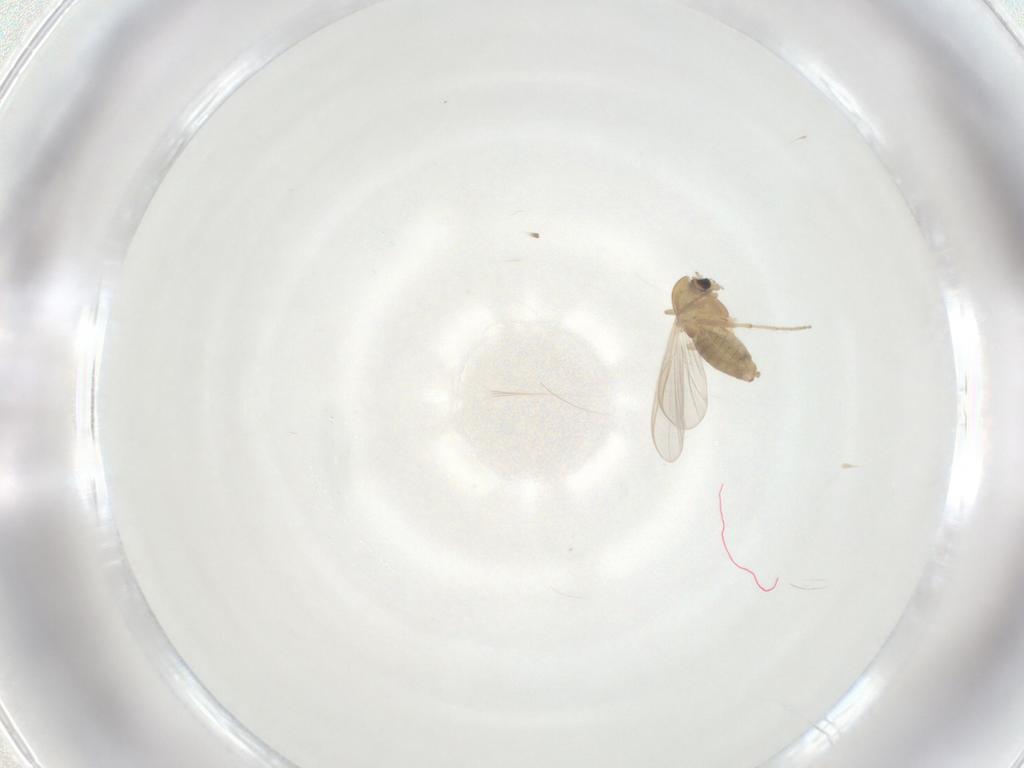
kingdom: Animalia
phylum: Arthropoda
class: Insecta
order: Diptera
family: Chironomidae
